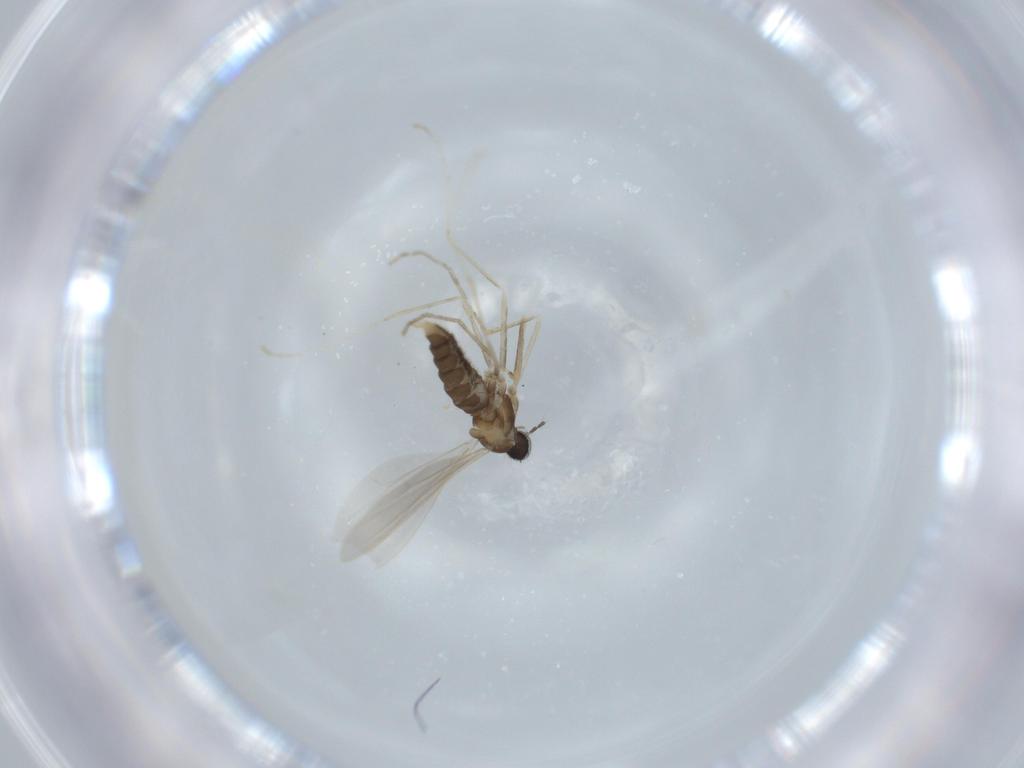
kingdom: Animalia
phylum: Arthropoda
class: Insecta
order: Diptera
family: Cecidomyiidae
